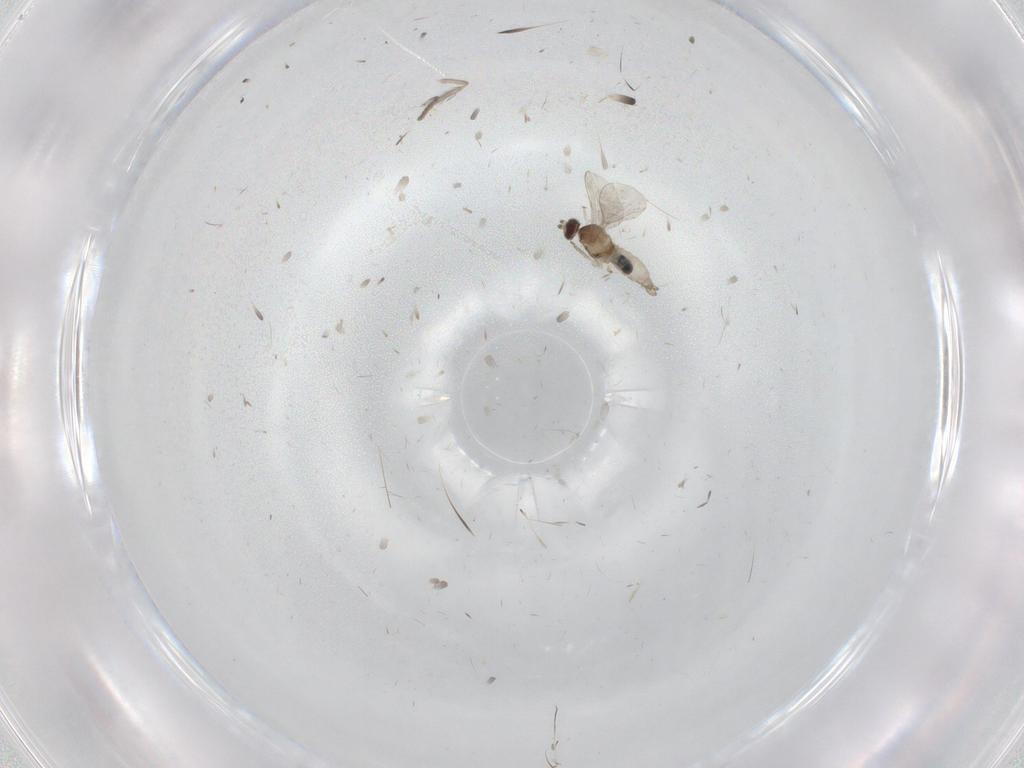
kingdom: Animalia
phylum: Arthropoda
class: Insecta
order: Diptera
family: Cecidomyiidae
